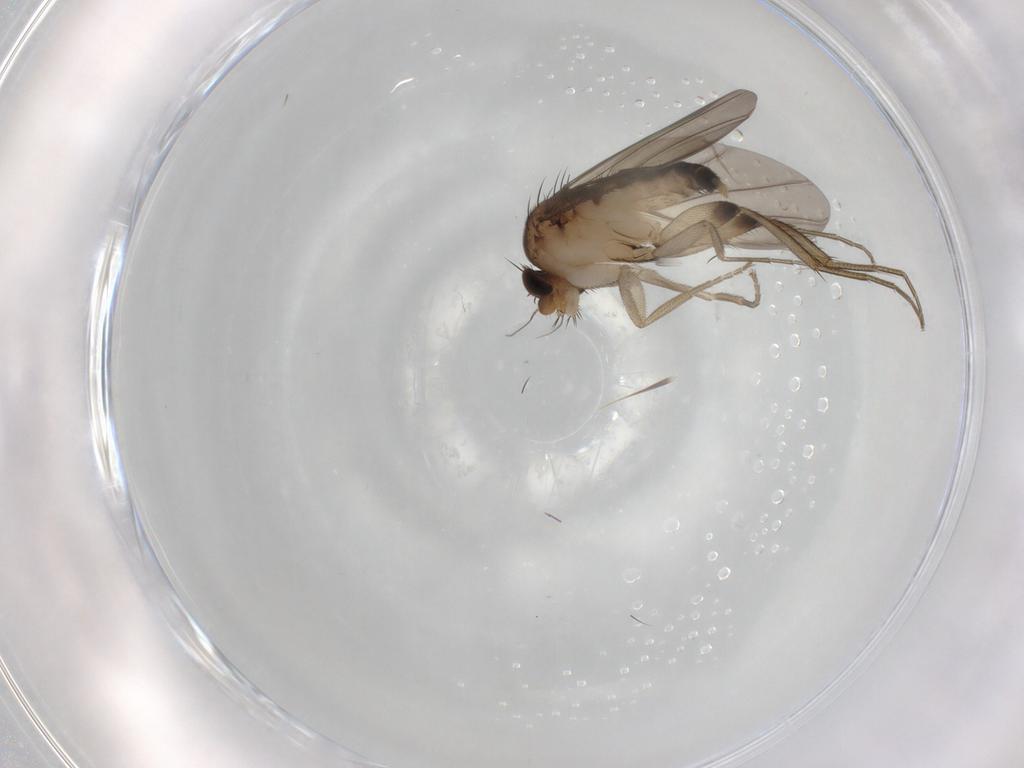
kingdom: Animalia
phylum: Arthropoda
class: Insecta
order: Diptera
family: Phoridae
